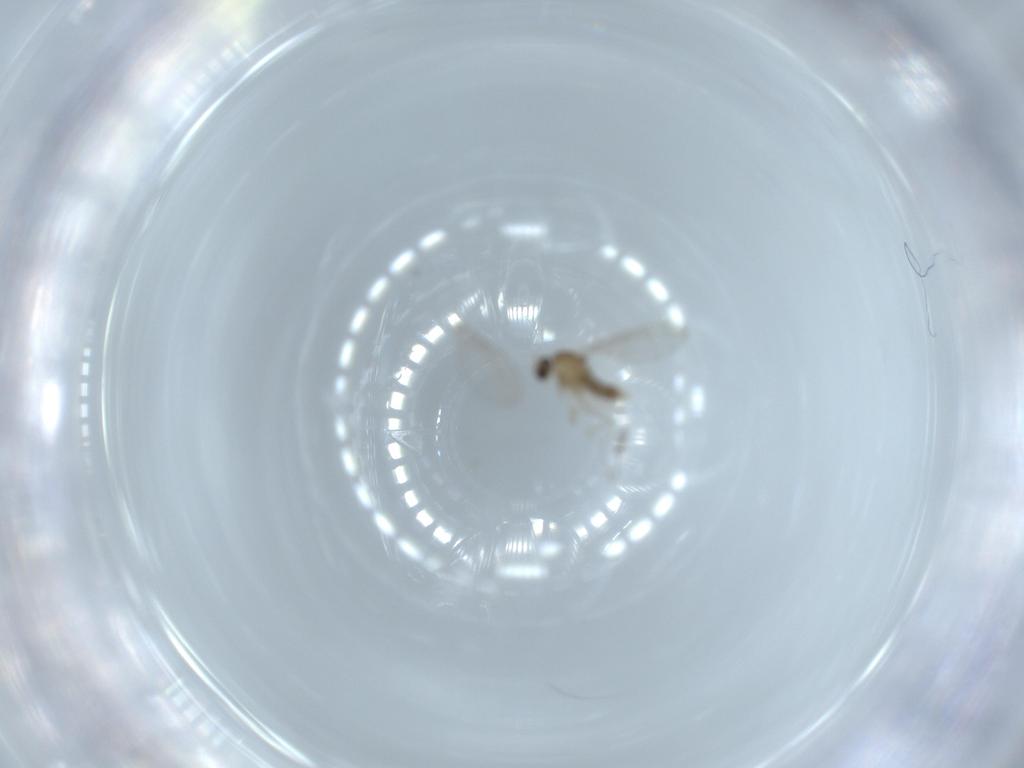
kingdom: Animalia
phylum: Arthropoda
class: Insecta
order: Diptera
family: Cecidomyiidae
